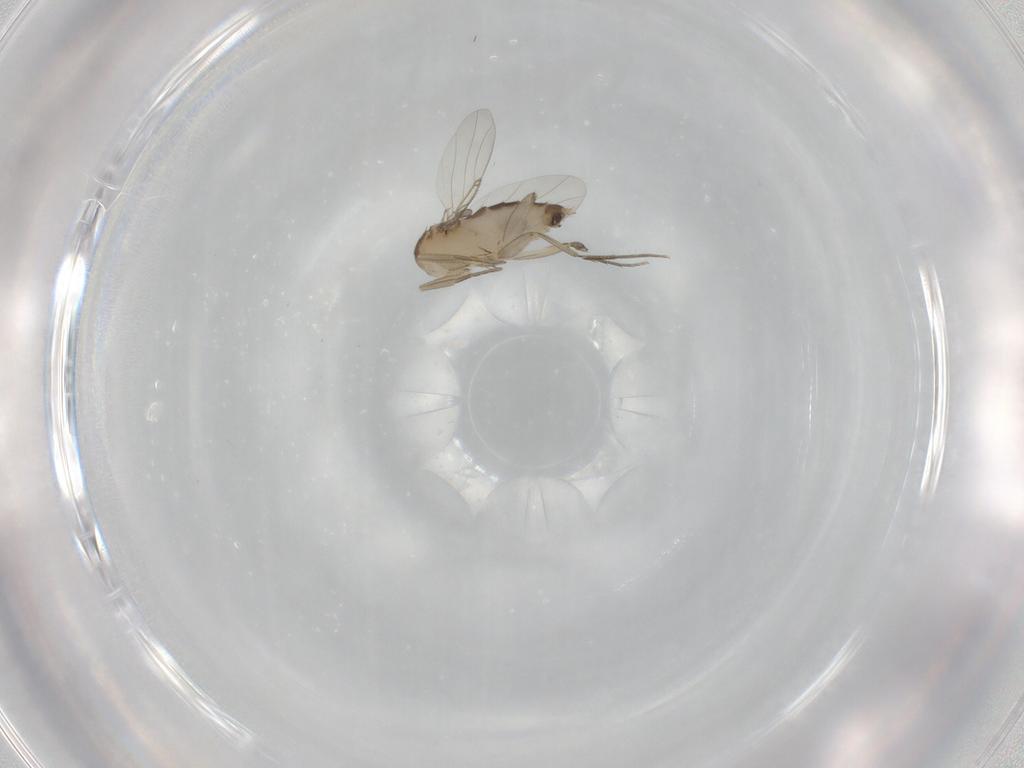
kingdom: Animalia
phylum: Arthropoda
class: Insecta
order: Diptera
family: Phoridae
